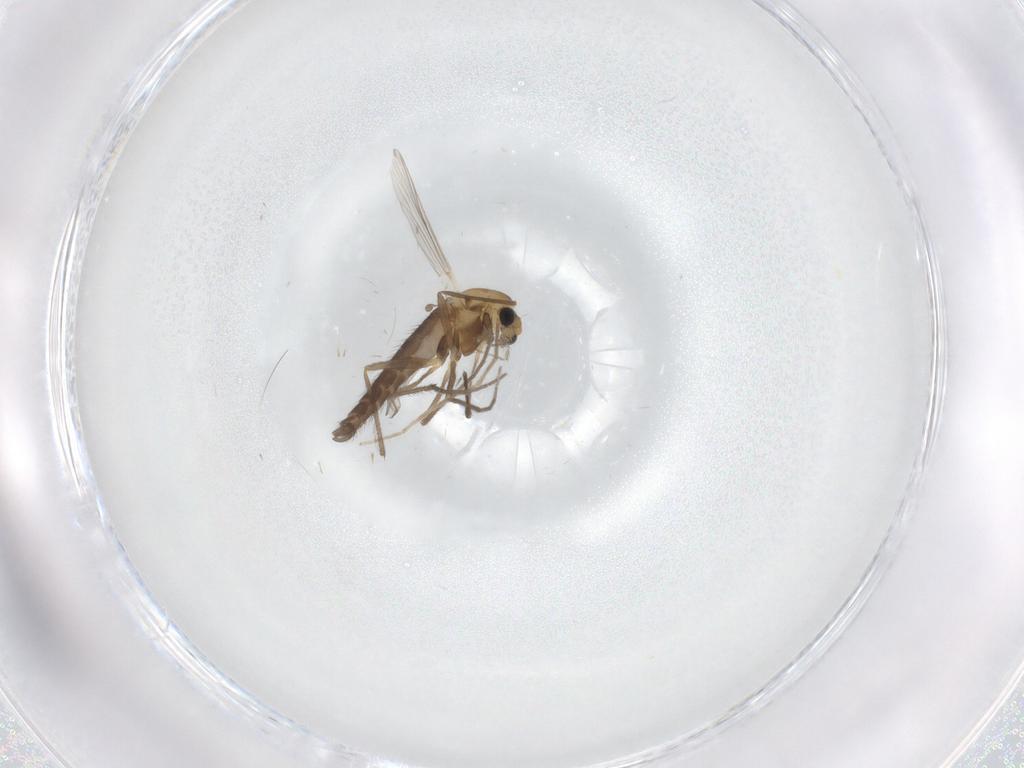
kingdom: Animalia
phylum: Arthropoda
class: Insecta
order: Diptera
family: Chironomidae
